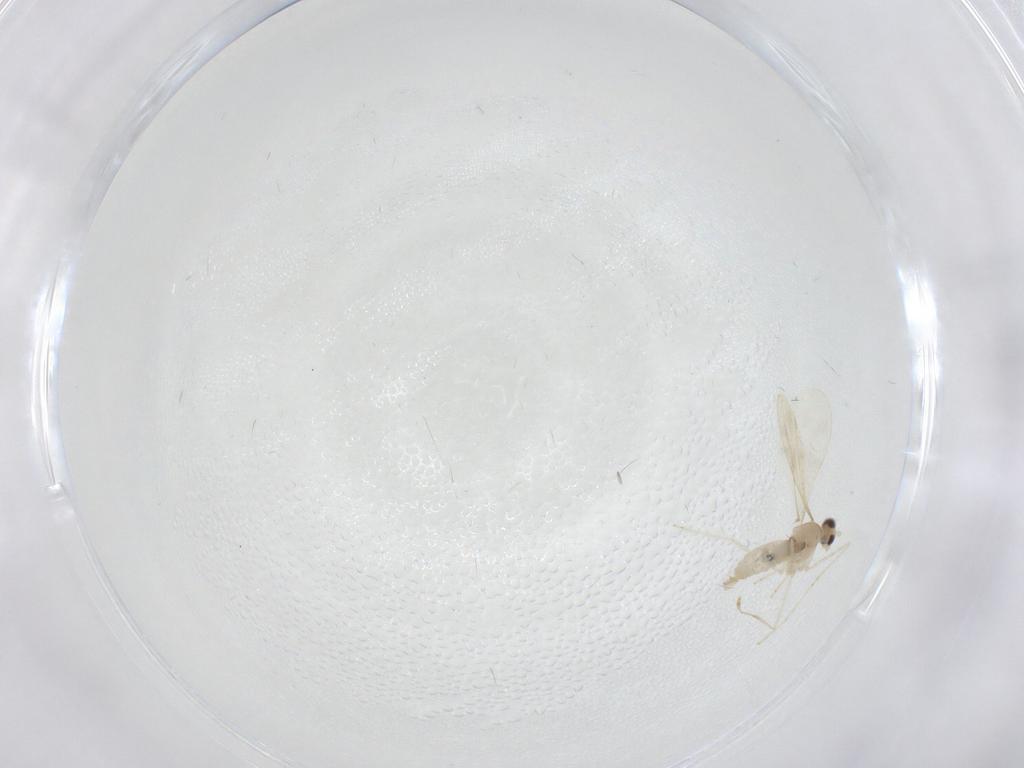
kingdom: Animalia
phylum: Arthropoda
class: Insecta
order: Diptera
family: Cecidomyiidae
